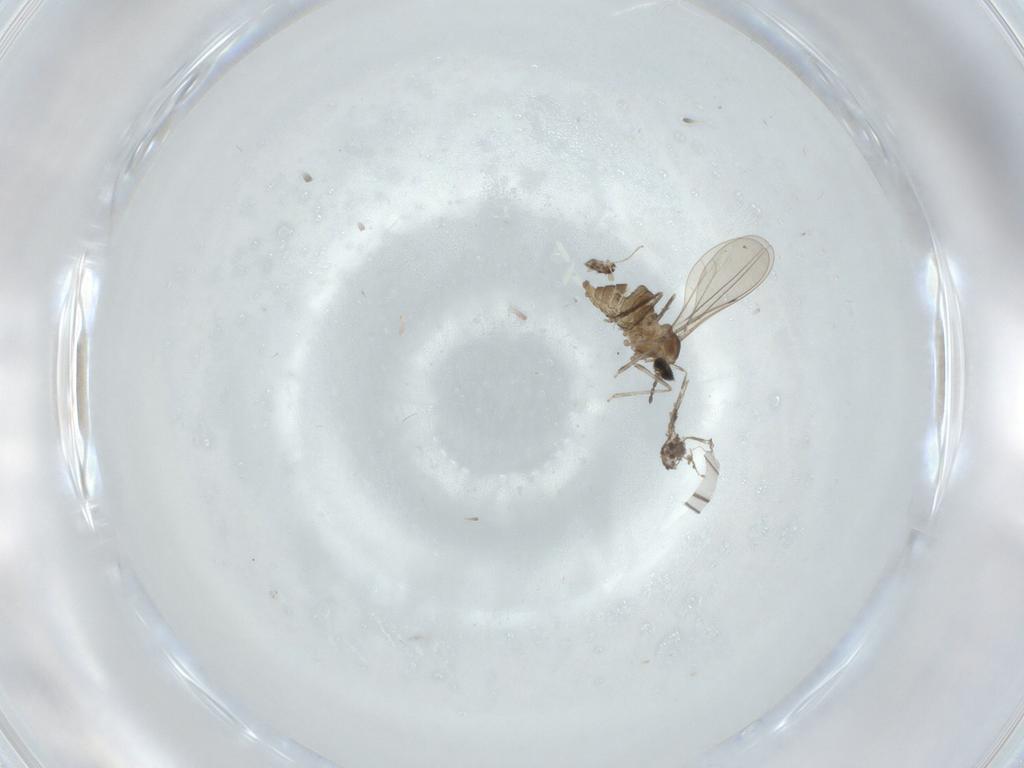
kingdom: Animalia
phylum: Arthropoda
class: Insecta
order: Diptera
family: Cecidomyiidae
